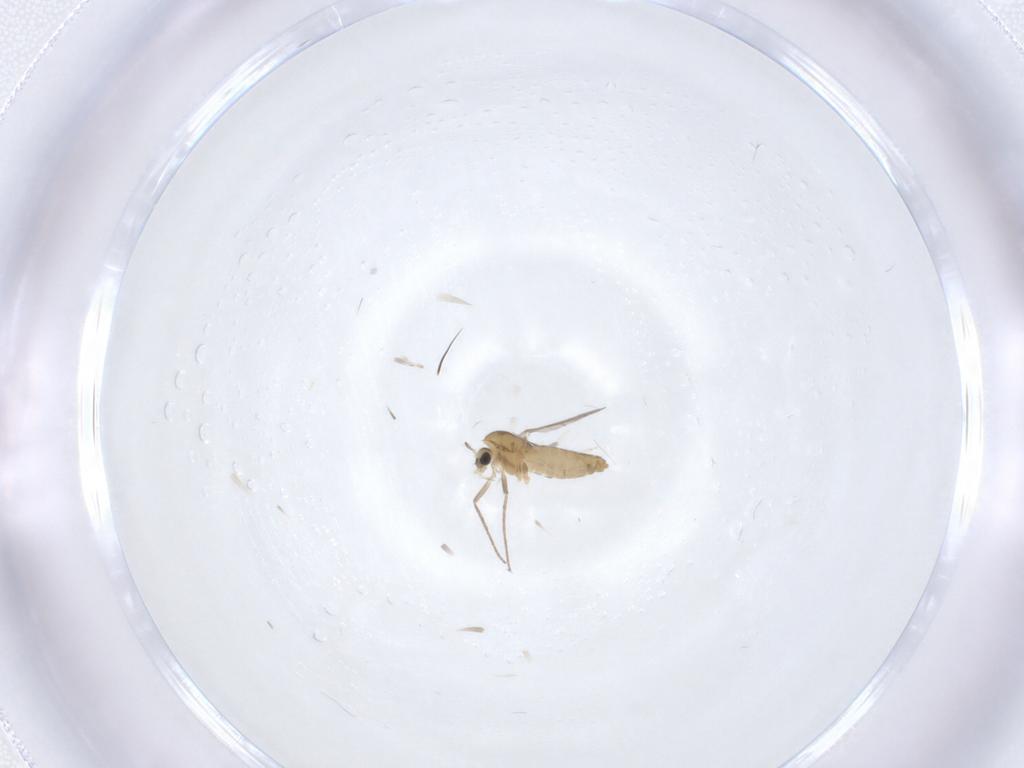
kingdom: Animalia
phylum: Arthropoda
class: Insecta
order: Diptera
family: Chironomidae
